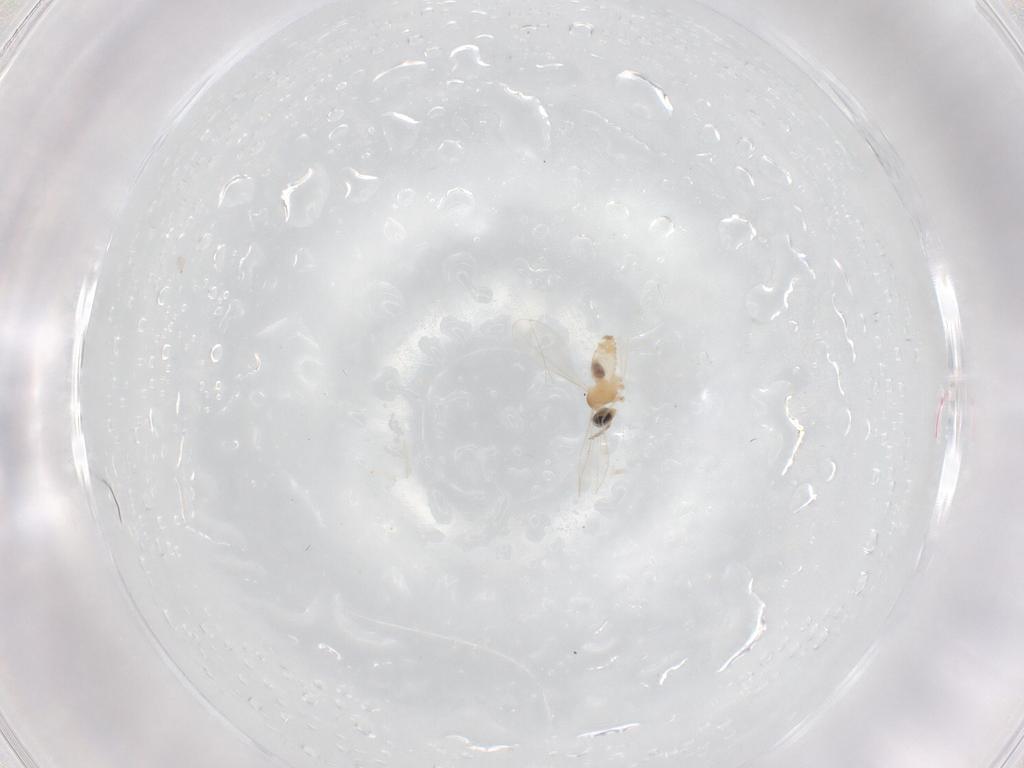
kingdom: Animalia
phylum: Arthropoda
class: Insecta
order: Diptera
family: Cecidomyiidae
